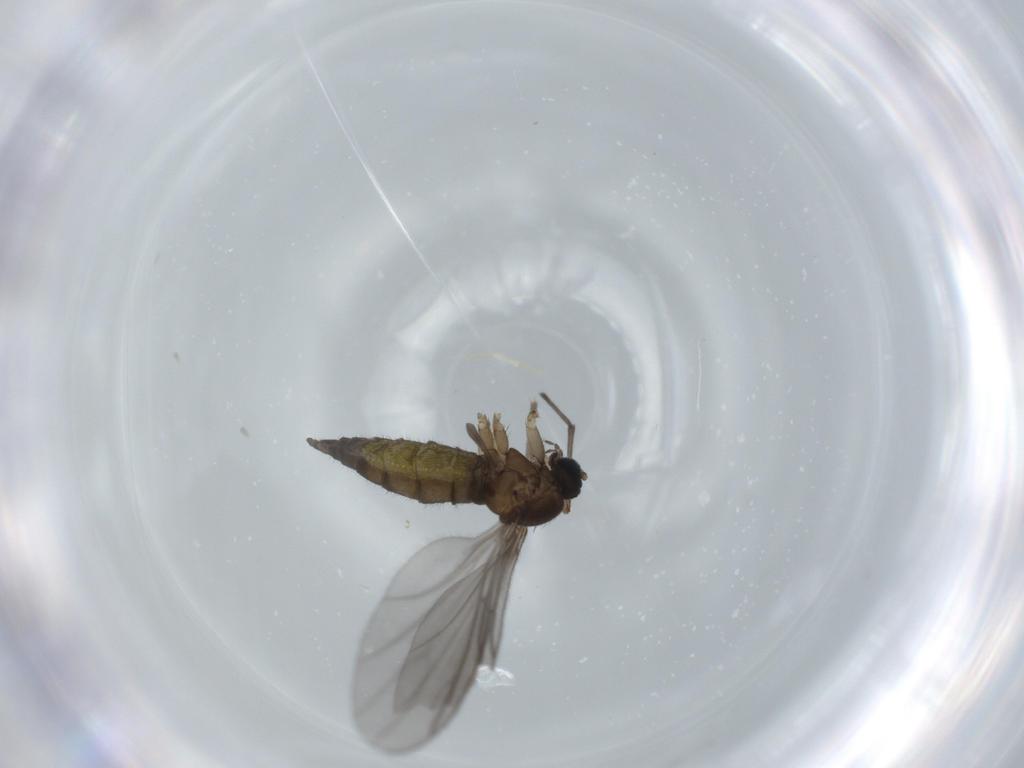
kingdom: Animalia
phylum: Arthropoda
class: Insecta
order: Diptera
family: Sciaridae
